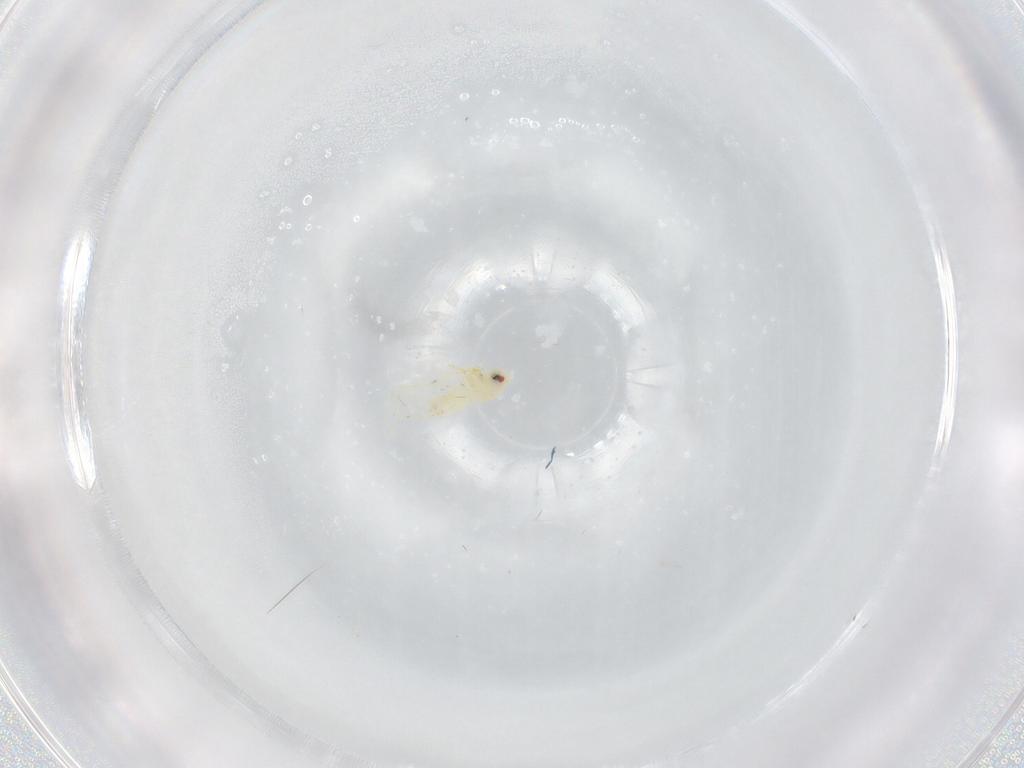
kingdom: Animalia
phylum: Arthropoda
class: Insecta
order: Hemiptera
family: Aleyrodidae
